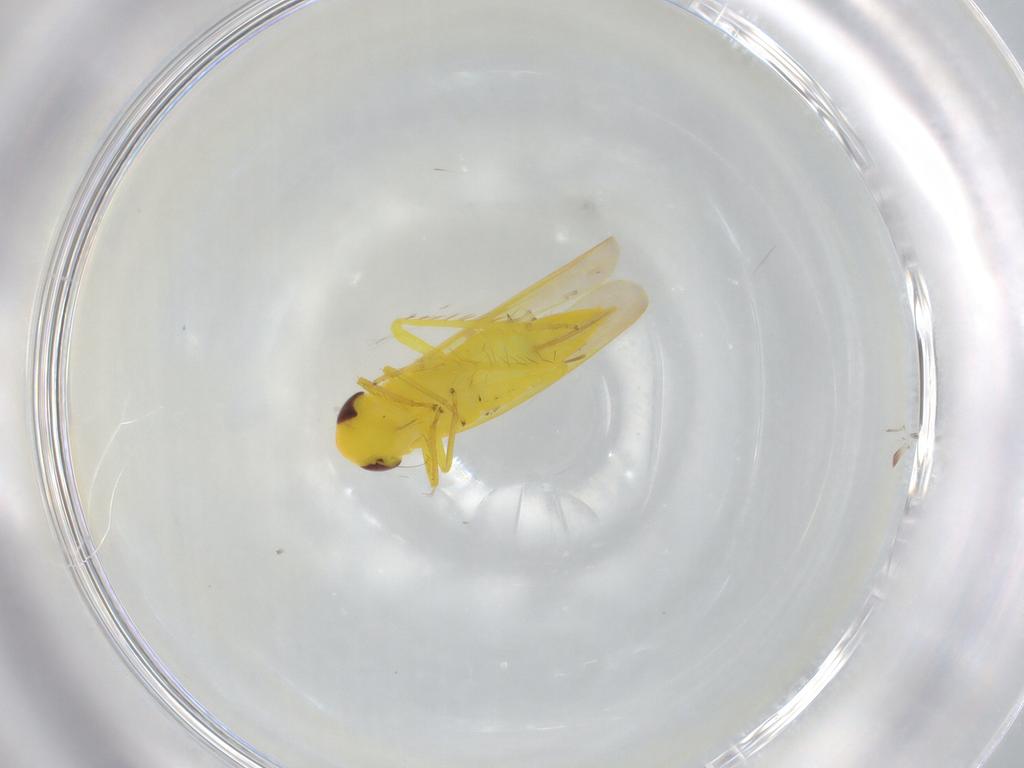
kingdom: Animalia
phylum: Arthropoda
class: Insecta
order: Hemiptera
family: Cicadellidae
